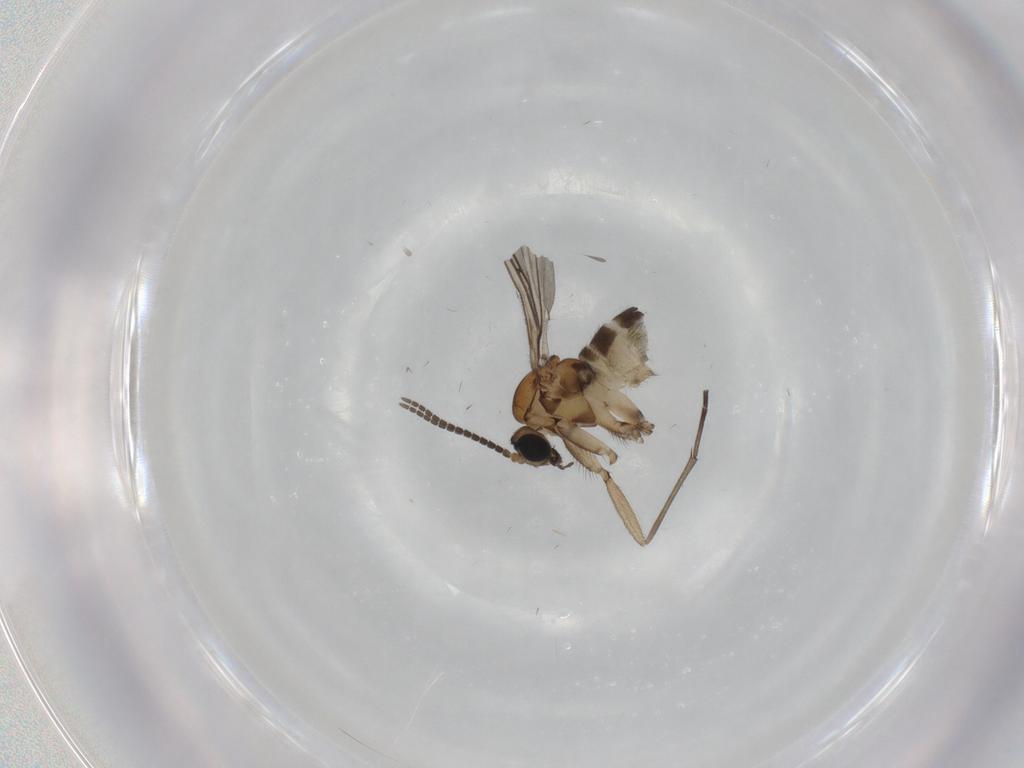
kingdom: Animalia
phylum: Arthropoda
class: Insecta
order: Diptera
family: Sciaridae
